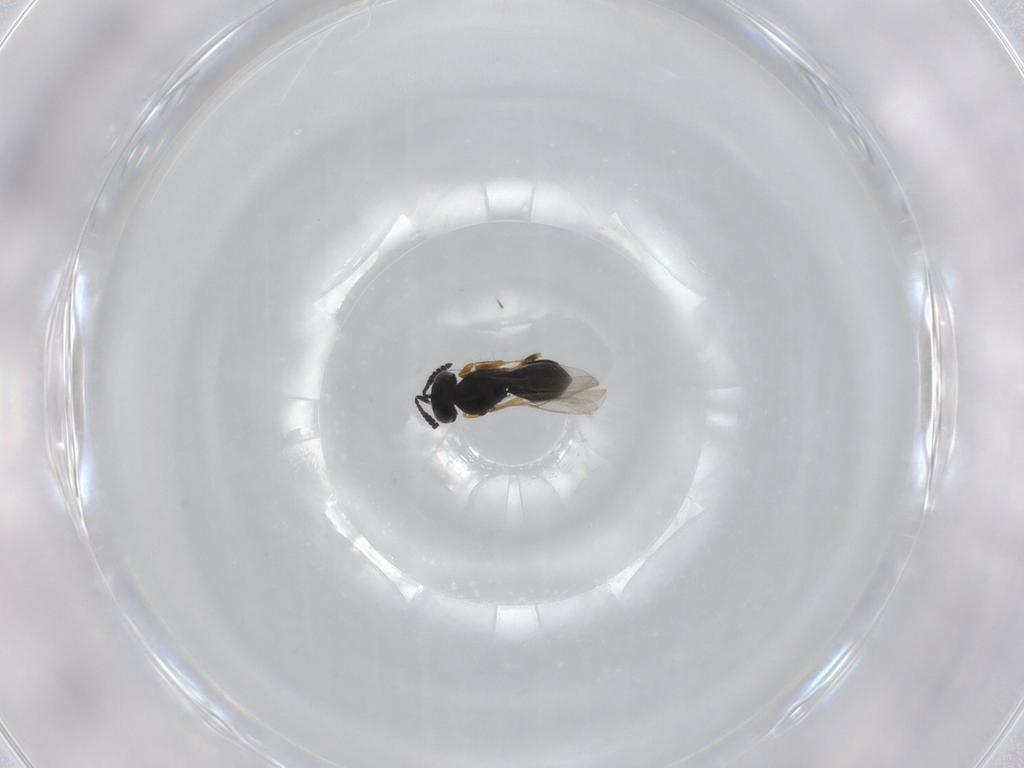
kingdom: Animalia
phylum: Arthropoda
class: Insecta
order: Hymenoptera
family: Scelionidae
